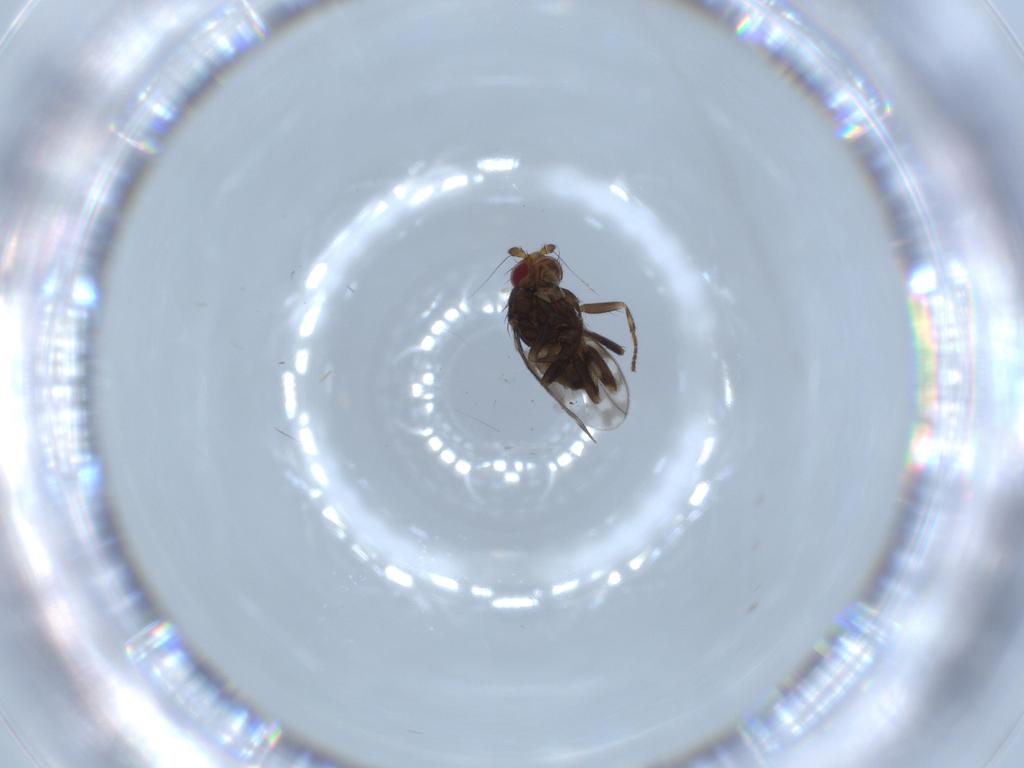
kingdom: Animalia
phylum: Arthropoda
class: Insecta
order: Diptera
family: Sphaeroceridae
